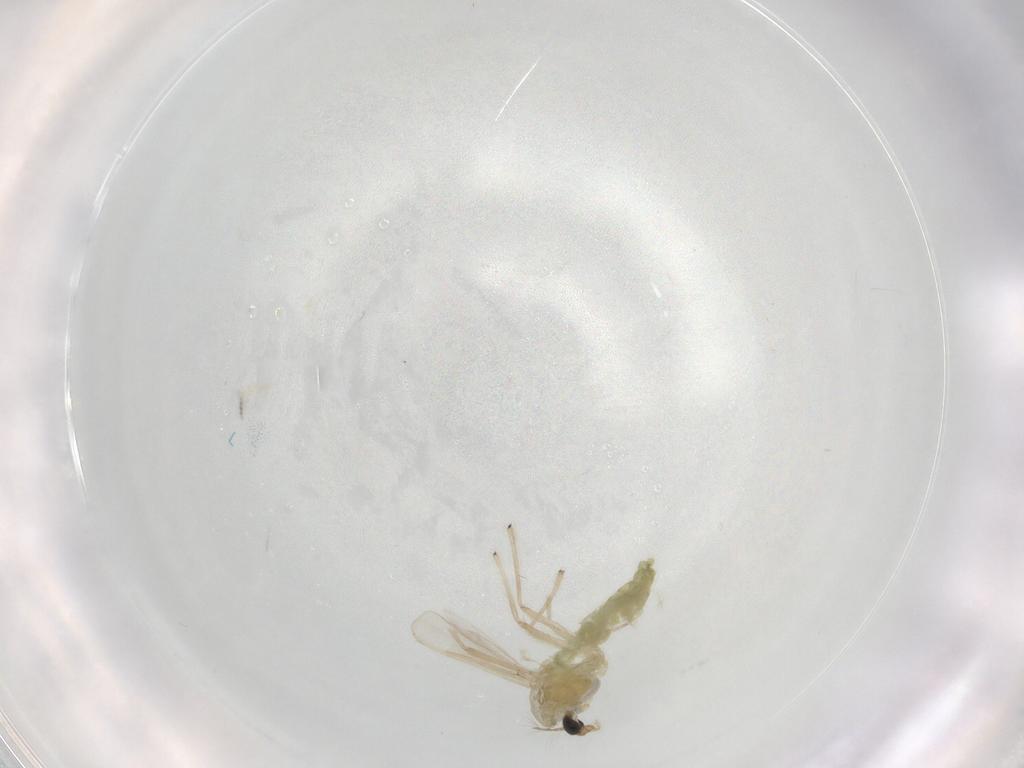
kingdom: Animalia
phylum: Arthropoda
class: Insecta
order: Diptera
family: Chironomidae
